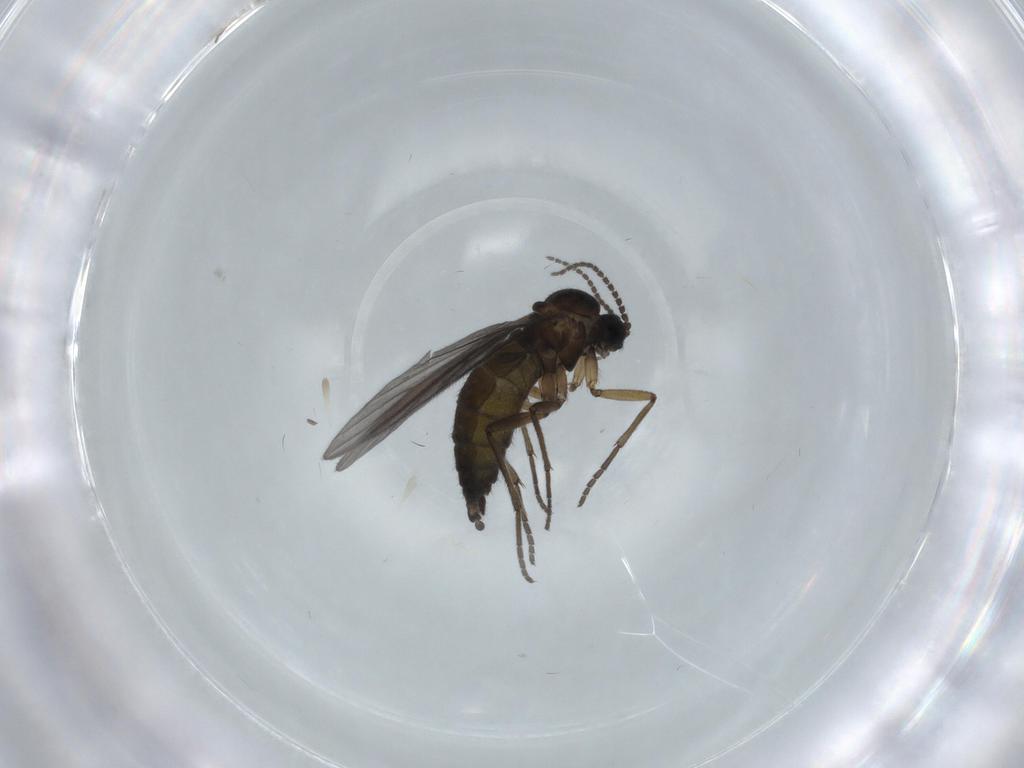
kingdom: Animalia
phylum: Arthropoda
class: Insecta
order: Diptera
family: Sciaridae
